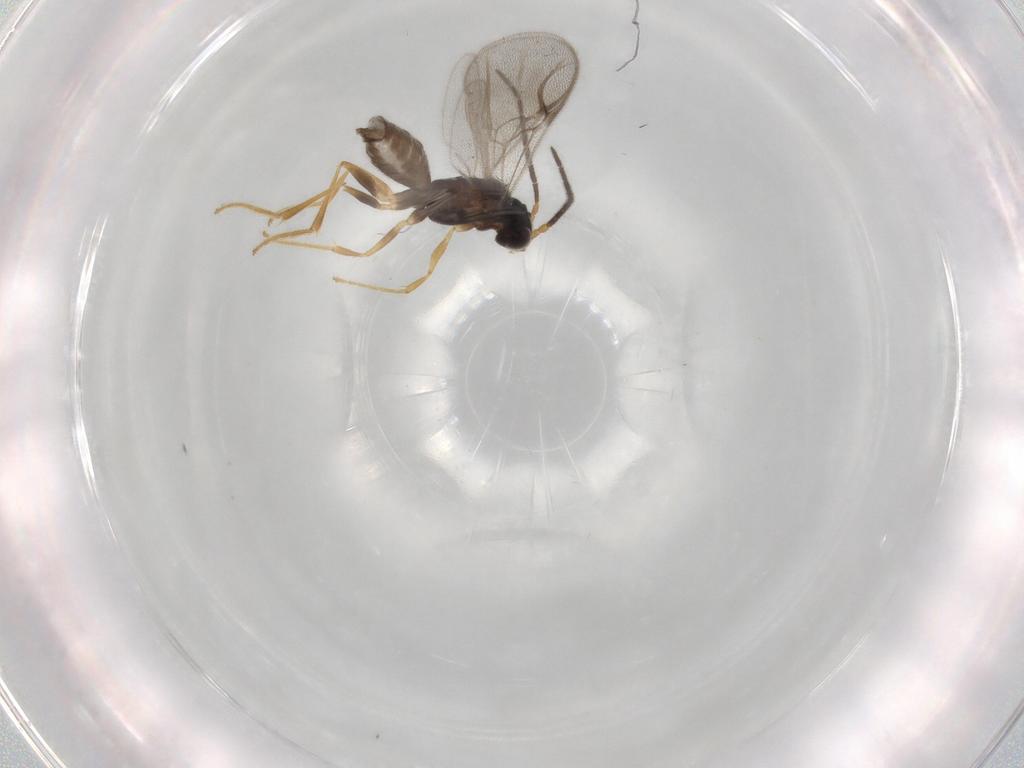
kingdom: Animalia
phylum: Arthropoda
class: Insecta
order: Hymenoptera
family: Dryinidae
